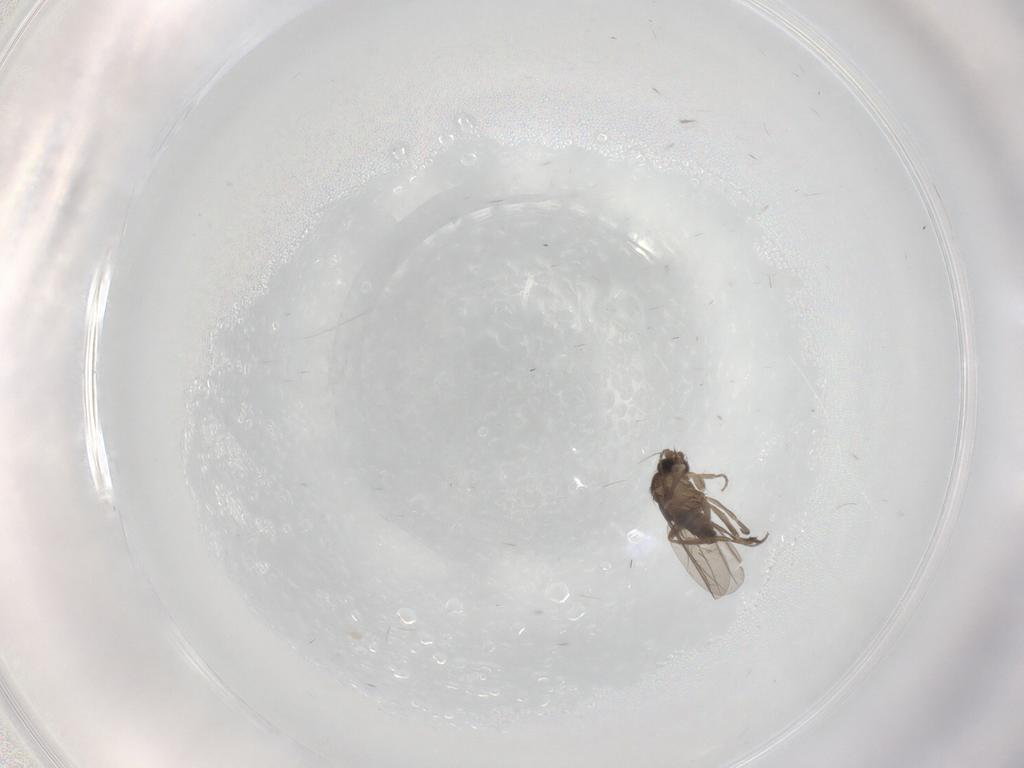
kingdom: Animalia
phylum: Arthropoda
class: Insecta
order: Diptera
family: Phoridae
